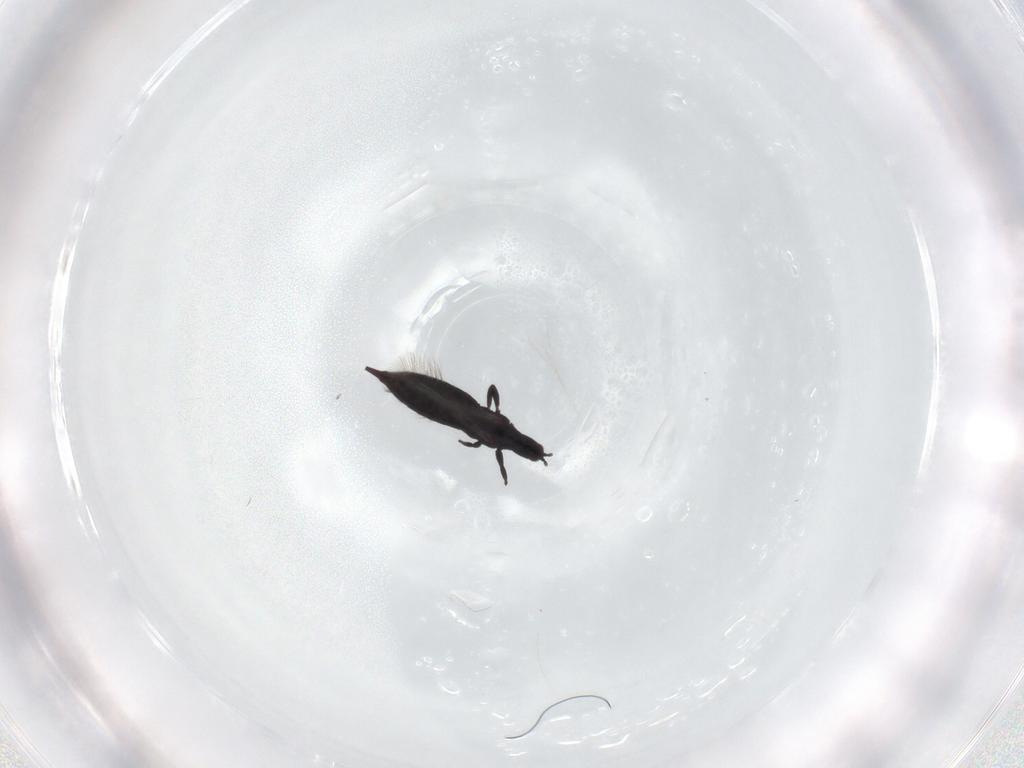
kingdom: Animalia
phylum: Arthropoda
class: Insecta
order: Thysanoptera
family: Phlaeothripidae
